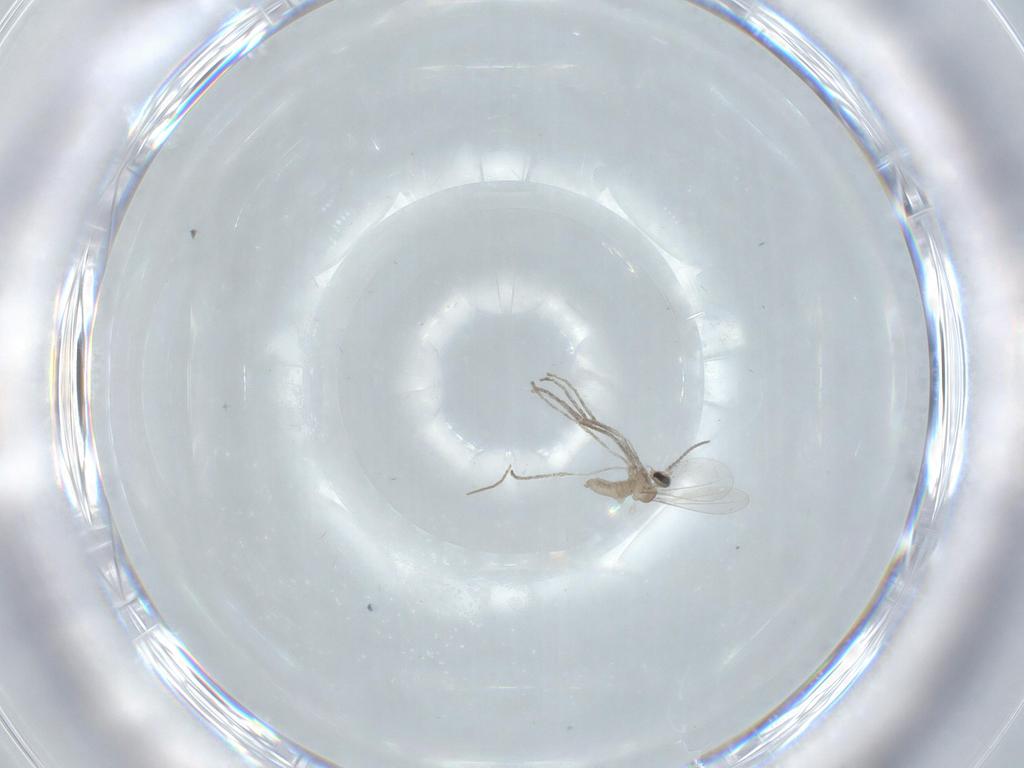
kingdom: Animalia
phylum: Arthropoda
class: Insecta
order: Diptera
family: Cecidomyiidae
